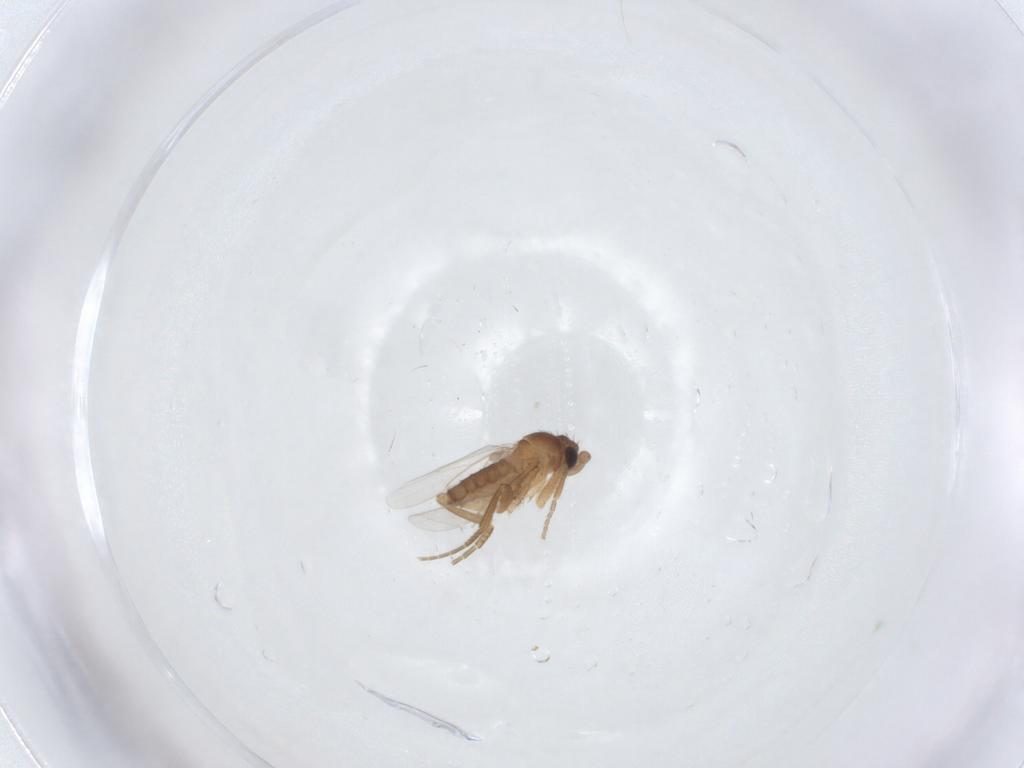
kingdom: Animalia
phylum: Arthropoda
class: Insecta
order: Diptera
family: Phoridae
